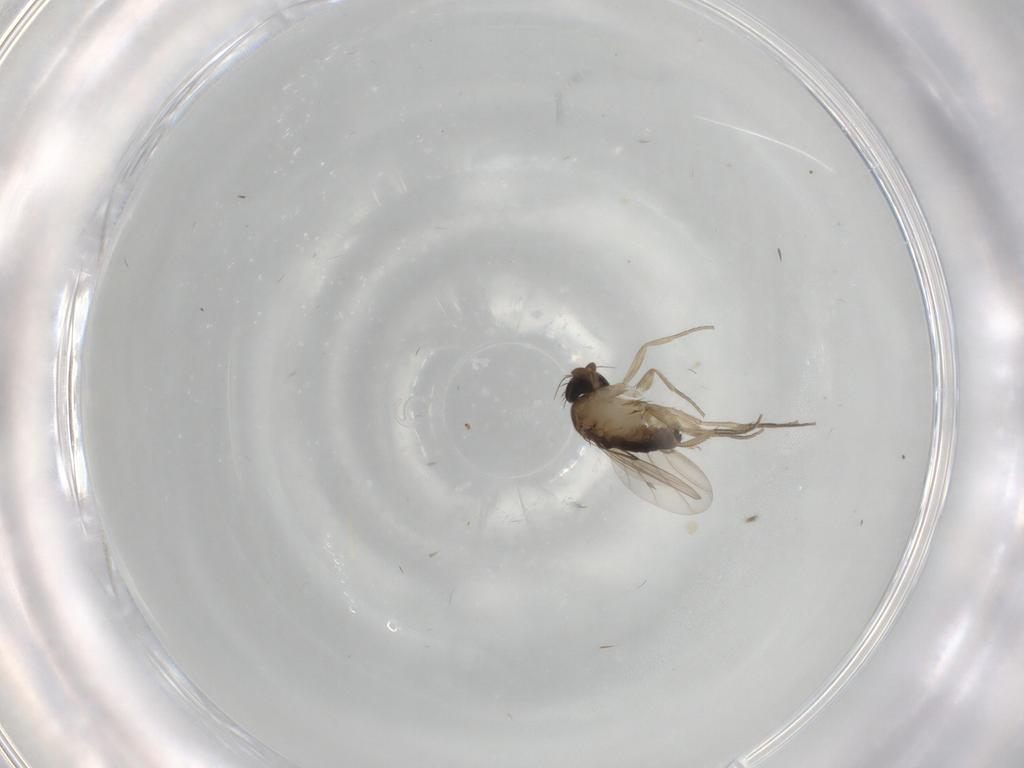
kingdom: Animalia
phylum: Arthropoda
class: Insecta
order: Diptera
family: Phoridae
